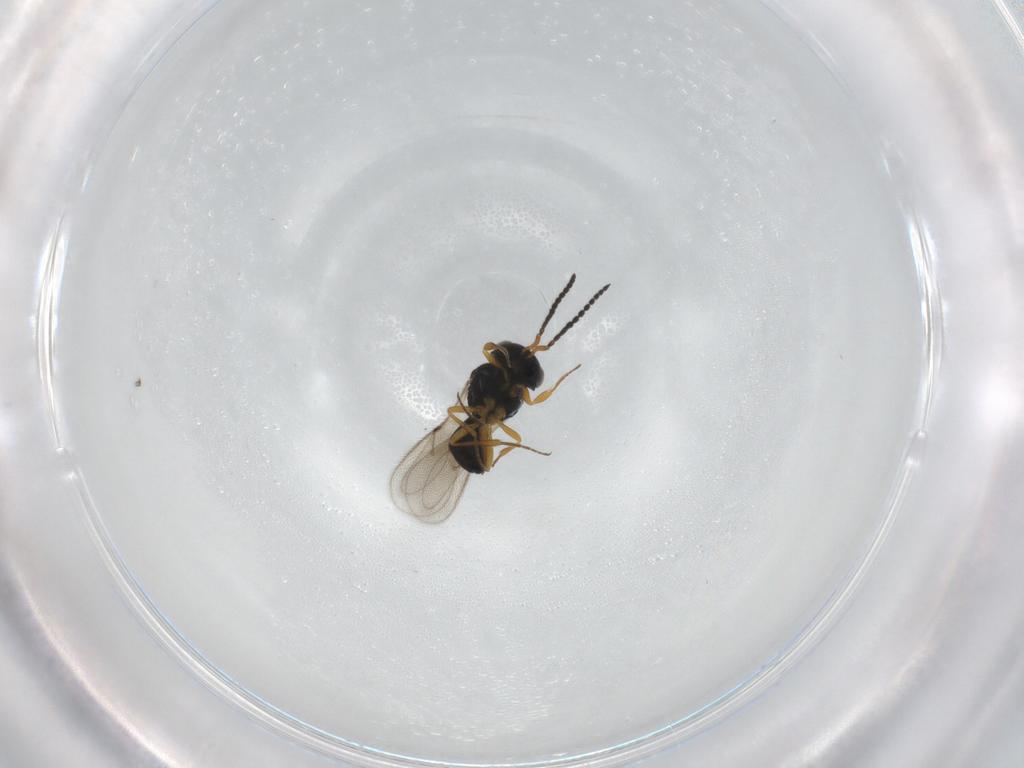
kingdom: Animalia
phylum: Arthropoda
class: Insecta
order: Hymenoptera
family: Scelionidae
